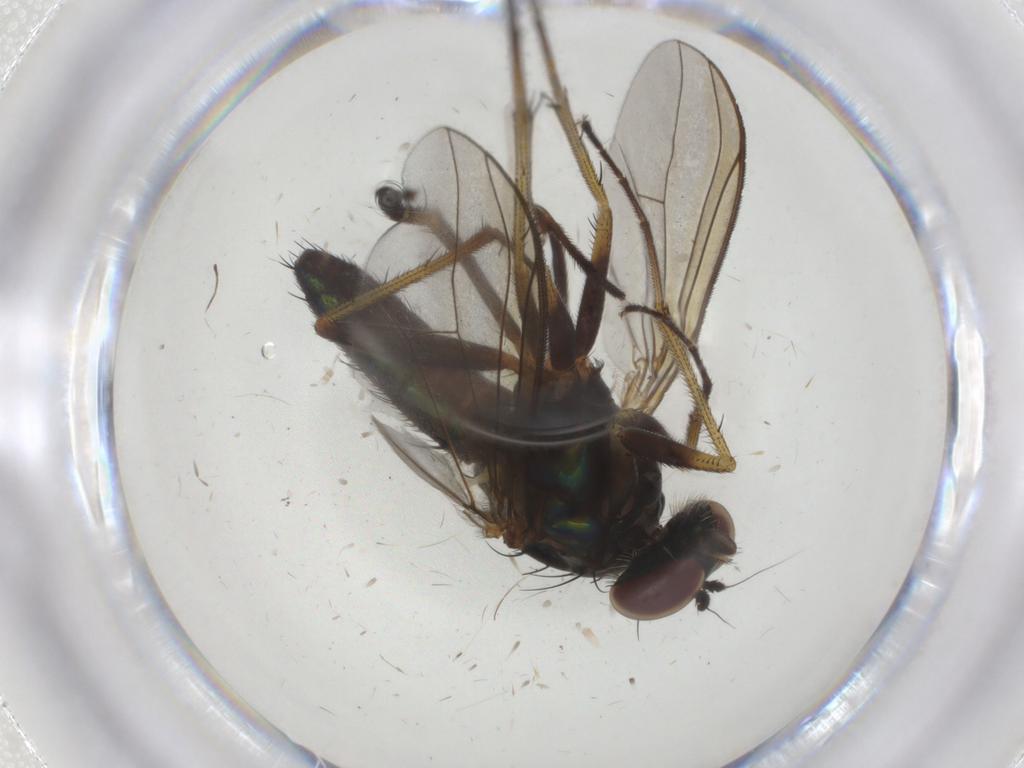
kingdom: Animalia
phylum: Arthropoda
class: Insecta
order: Diptera
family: Dolichopodidae
